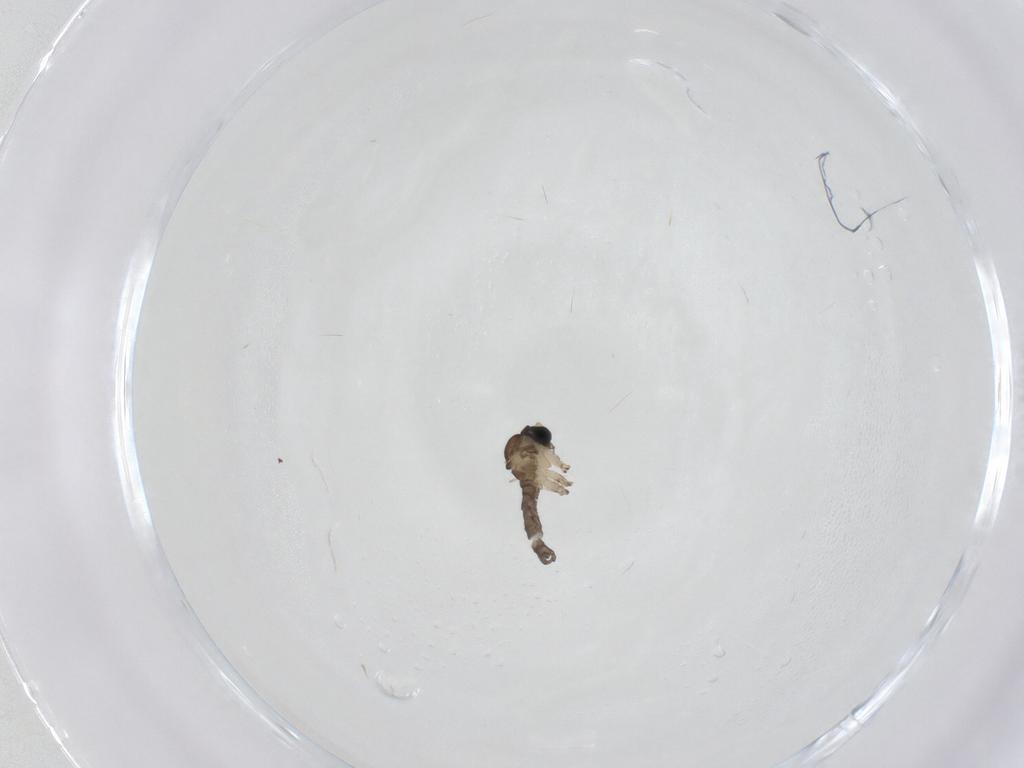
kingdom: Animalia
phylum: Arthropoda
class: Insecta
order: Diptera
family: Sciaridae
